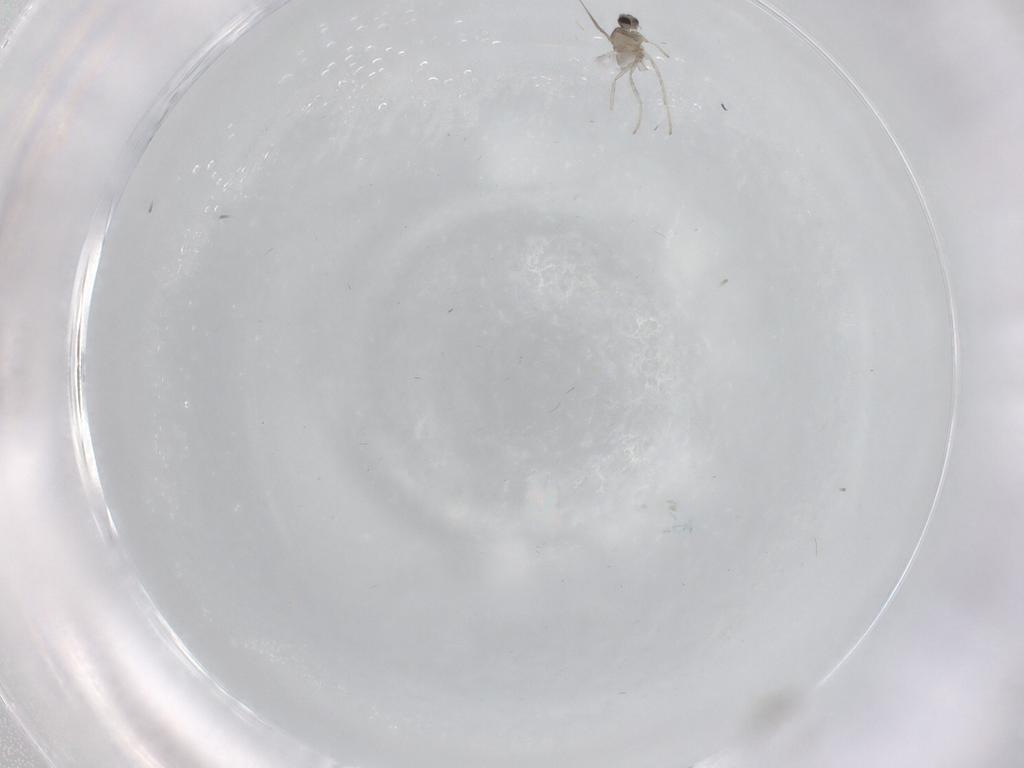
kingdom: Animalia
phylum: Arthropoda
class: Insecta
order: Diptera
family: Cecidomyiidae
